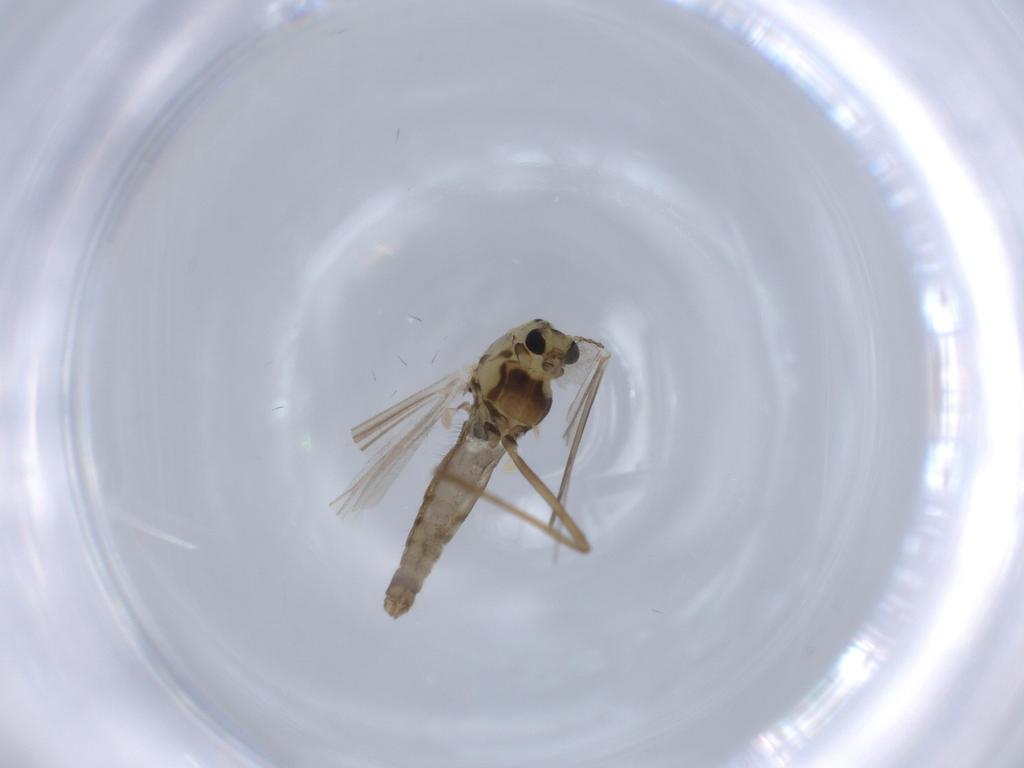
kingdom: Animalia
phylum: Arthropoda
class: Insecta
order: Diptera
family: Chironomidae
